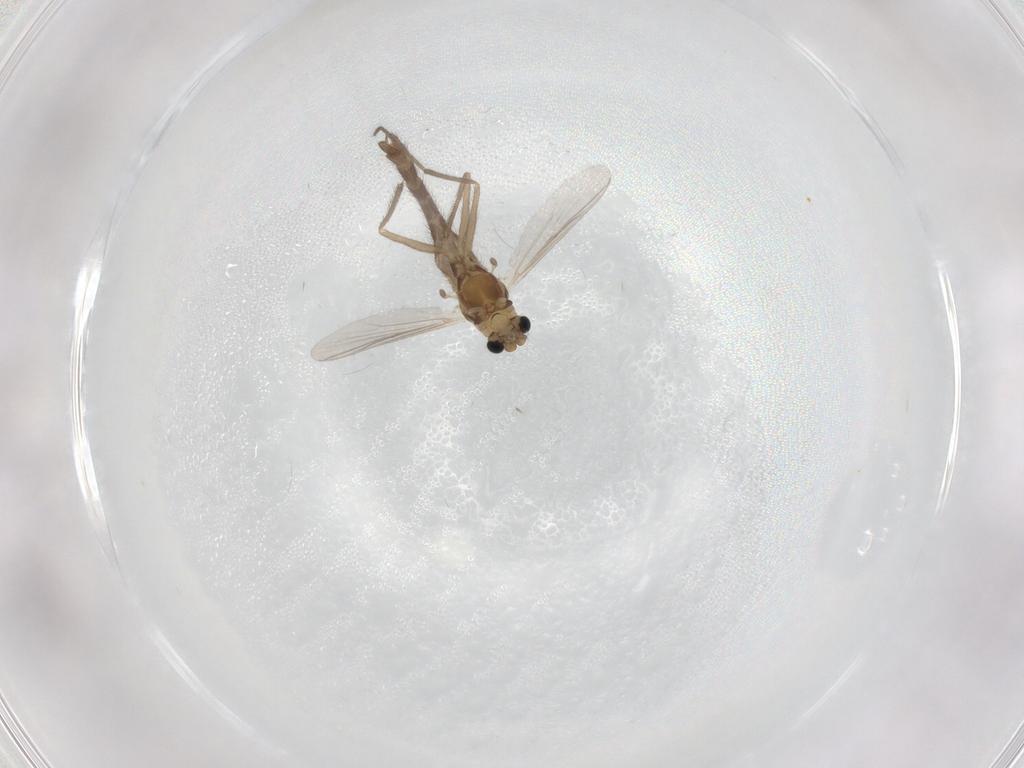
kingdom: Animalia
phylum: Arthropoda
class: Insecta
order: Diptera
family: Chironomidae
